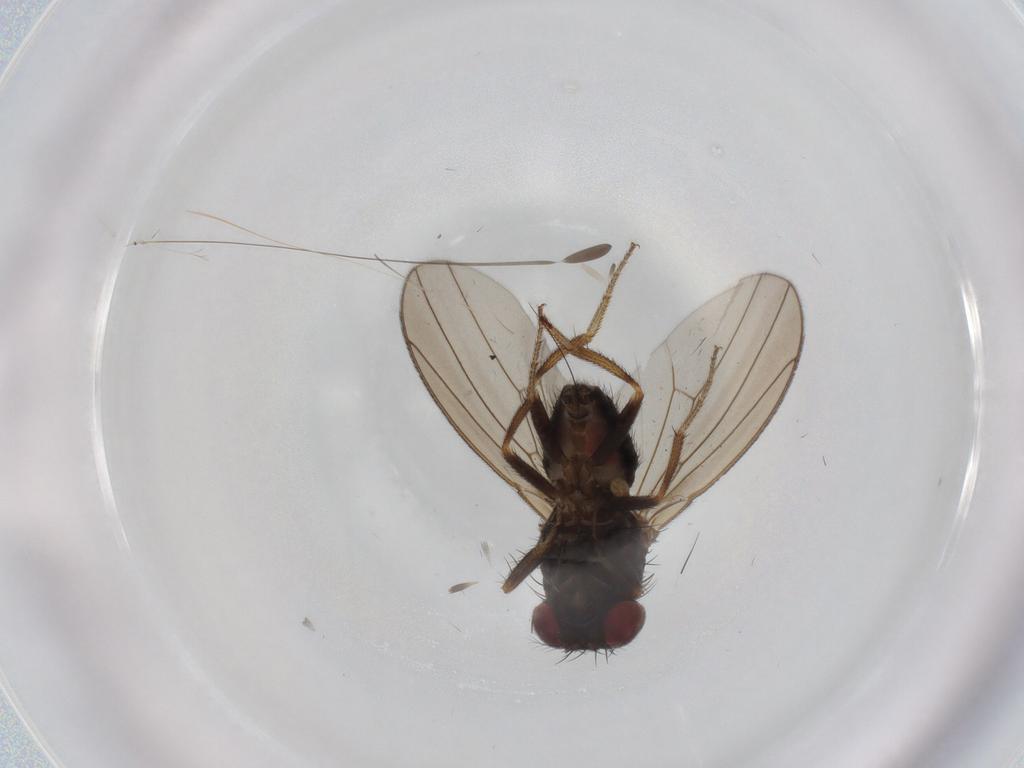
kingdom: Animalia
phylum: Arthropoda
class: Insecta
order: Diptera
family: Drosophilidae
